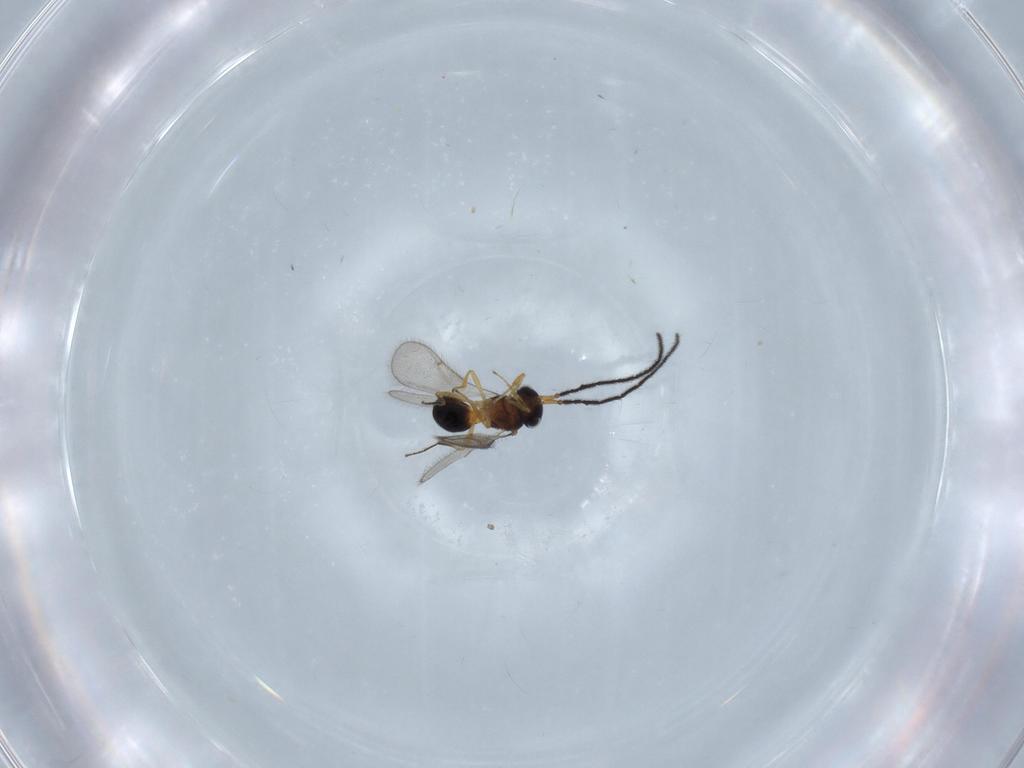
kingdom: Animalia
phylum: Arthropoda
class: Insecta
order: Hymenoptera
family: Scelionidae
